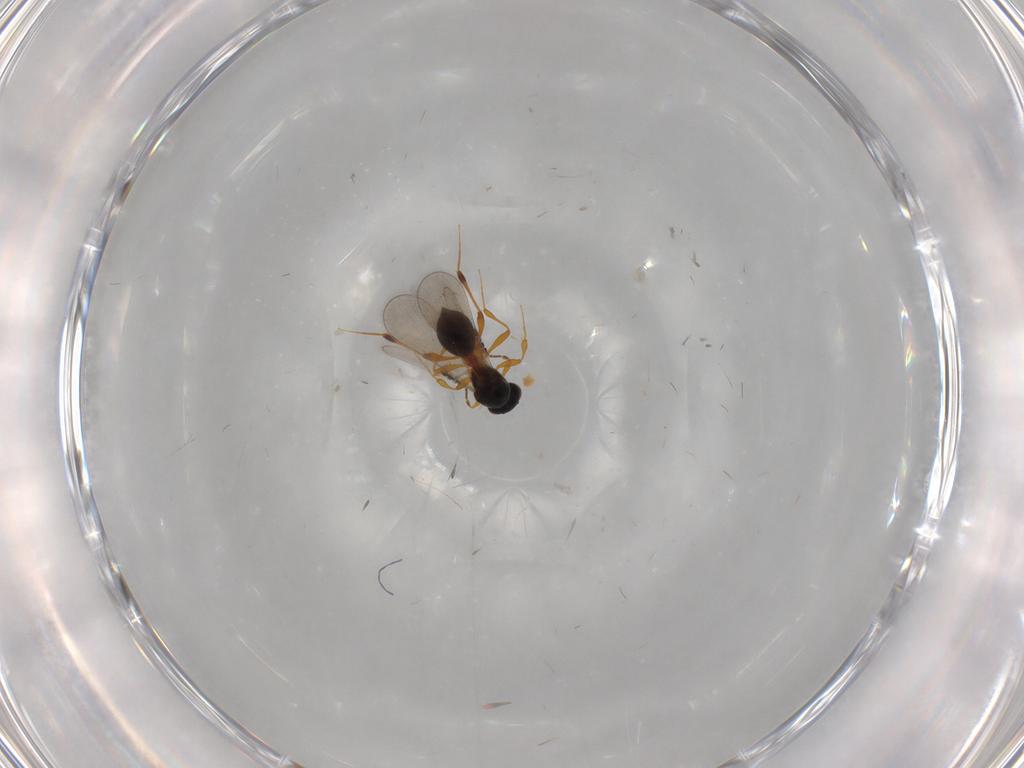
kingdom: Animalia
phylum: Arthropoda
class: Insecta
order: Hymenoptera
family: Platygastridae
